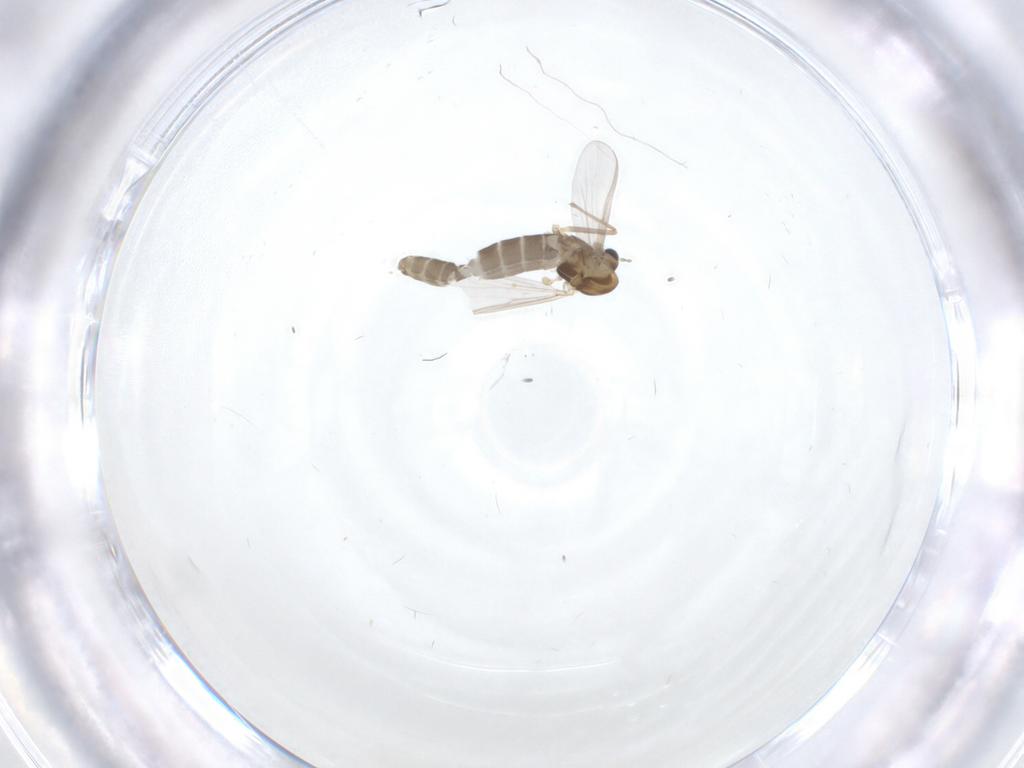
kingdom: Animalia
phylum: Arthropoda
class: Insecta
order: Diptera
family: Chironomidae
